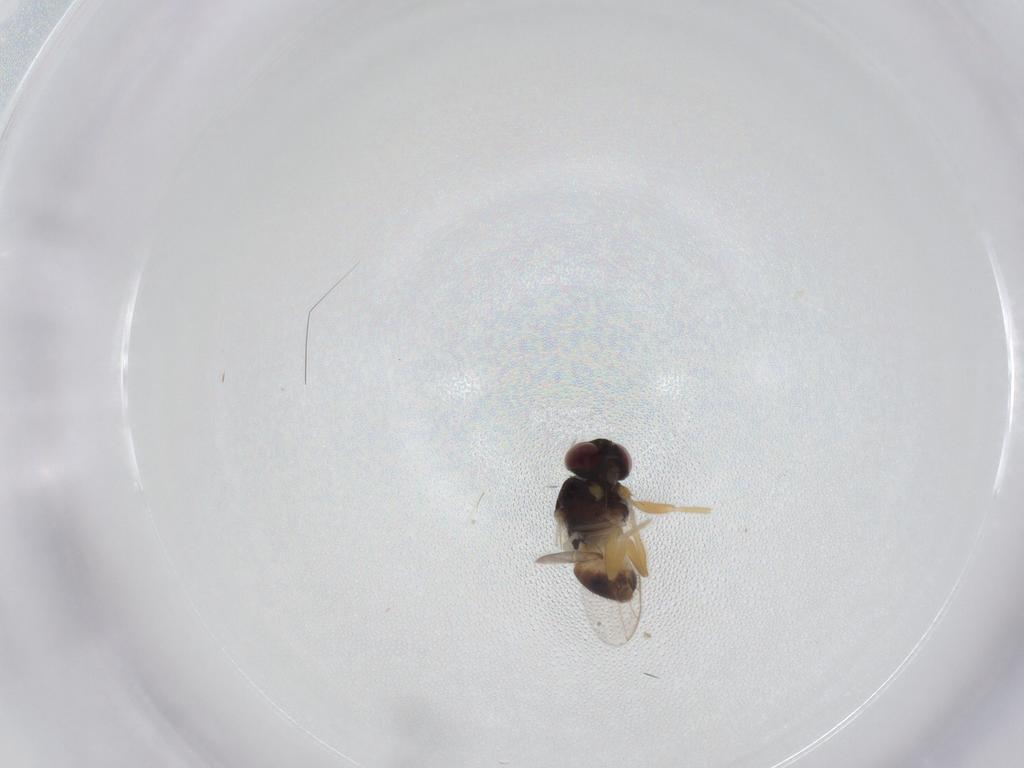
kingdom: Animalia
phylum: Arthropoda
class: Insecta
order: Diptera
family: Chloropidae
